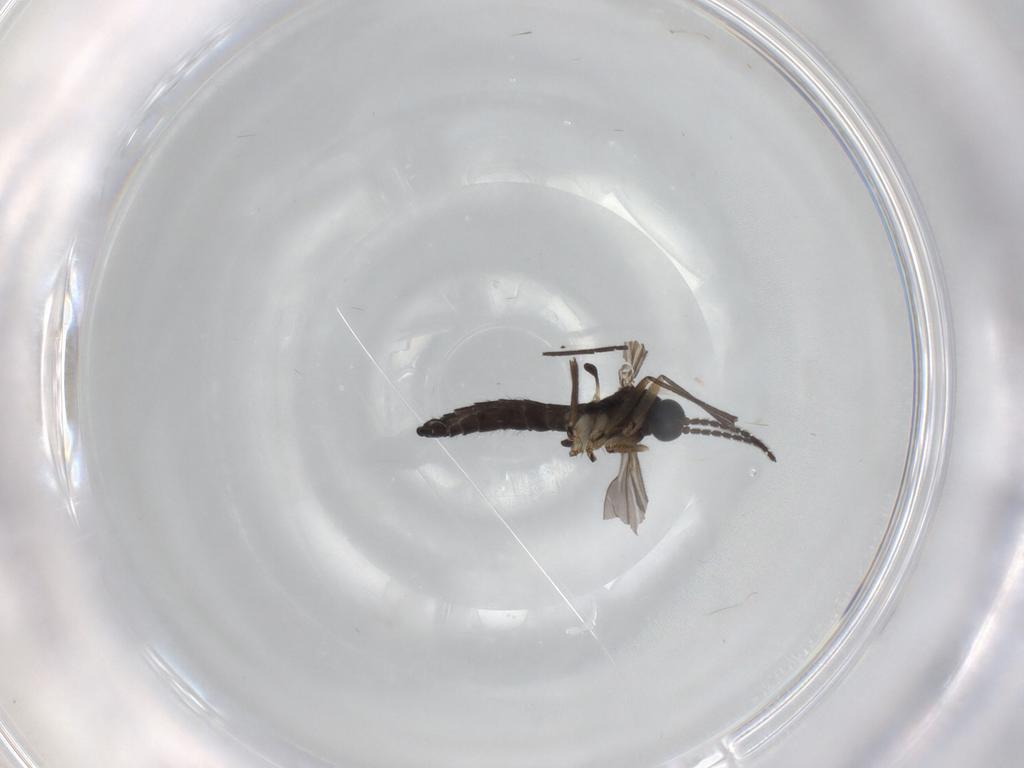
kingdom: Animalia
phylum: Arthropoda
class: Insecta
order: Diptera
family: Sciaridae
